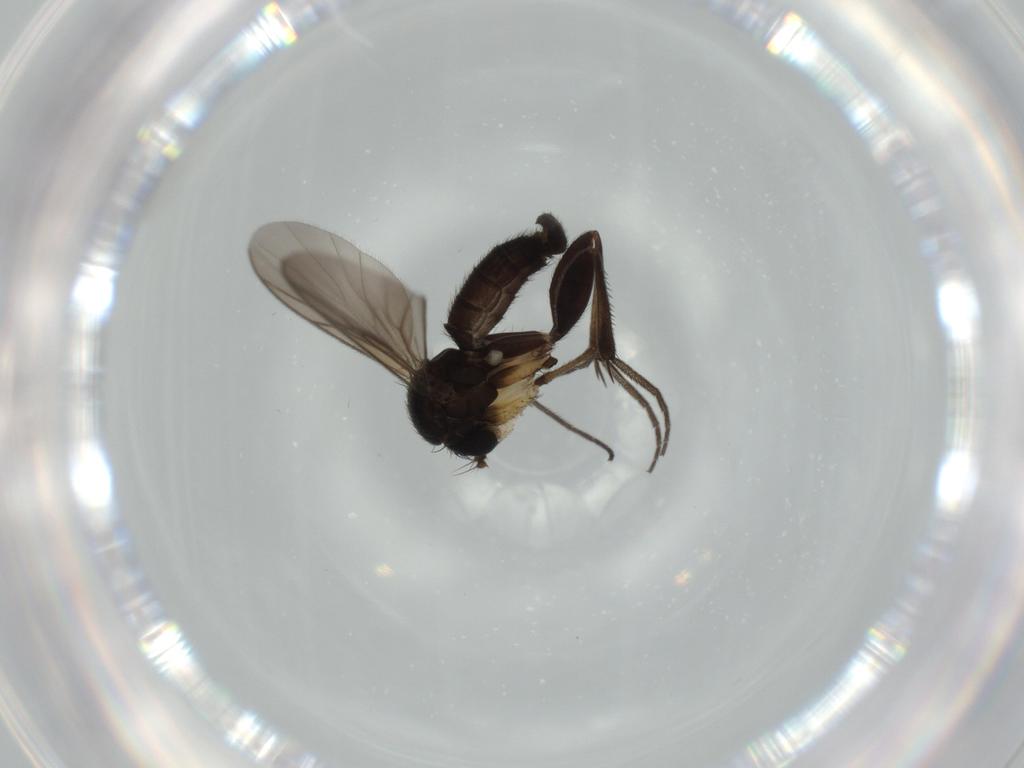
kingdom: Animalia
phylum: Arthropoda
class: Insecta
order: Diptera
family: Mycetophilidae
